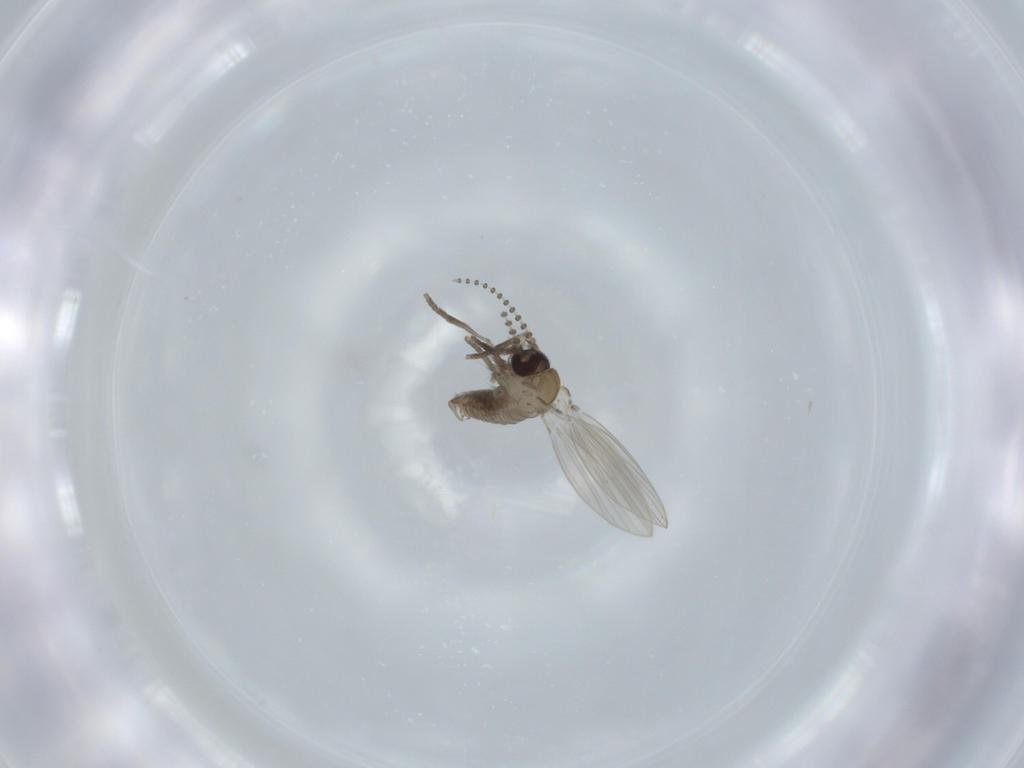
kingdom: Animalia
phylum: Arthropoda
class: Insecta
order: Diptera
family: Psychodidae
